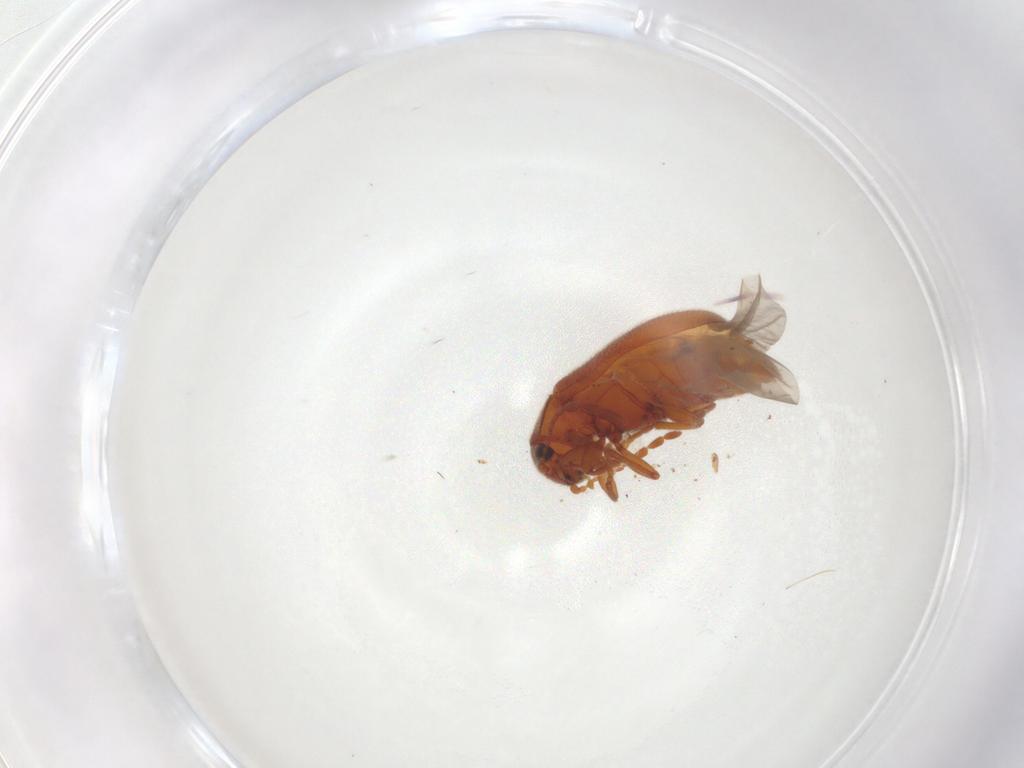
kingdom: Animalia
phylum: Arthropoda
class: Insecta
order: Coleoptera
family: Ptinidae
